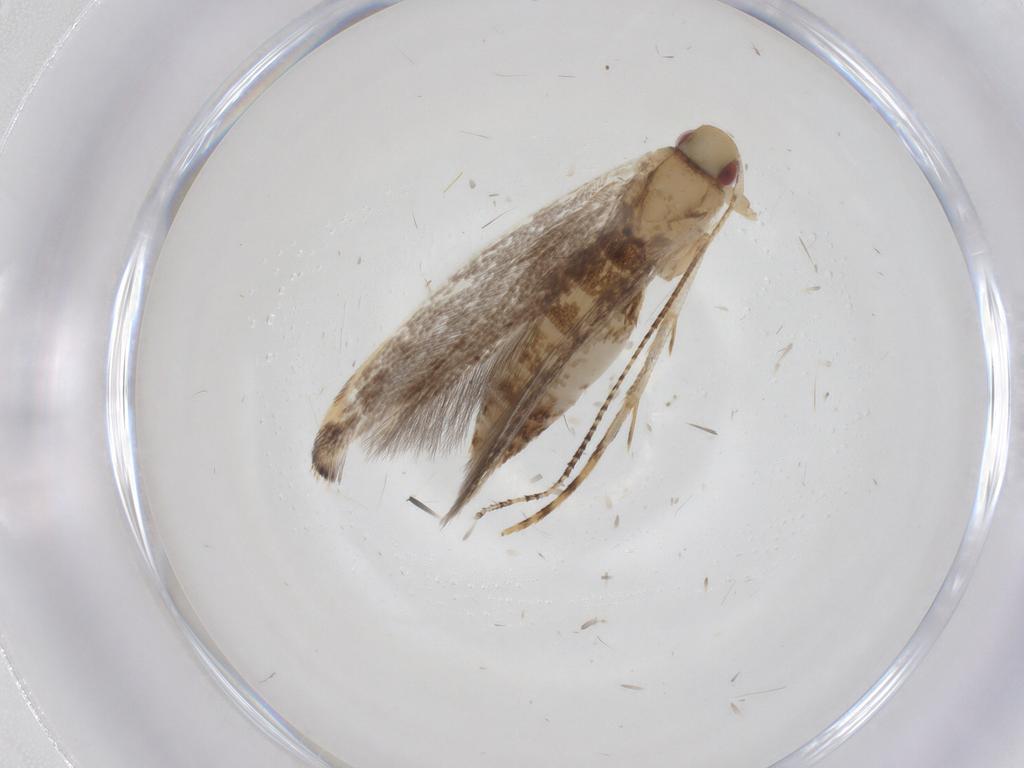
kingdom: Animalia
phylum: Arthropoda
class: Insecta
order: Lepidoptera
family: Cosmopterigidae
